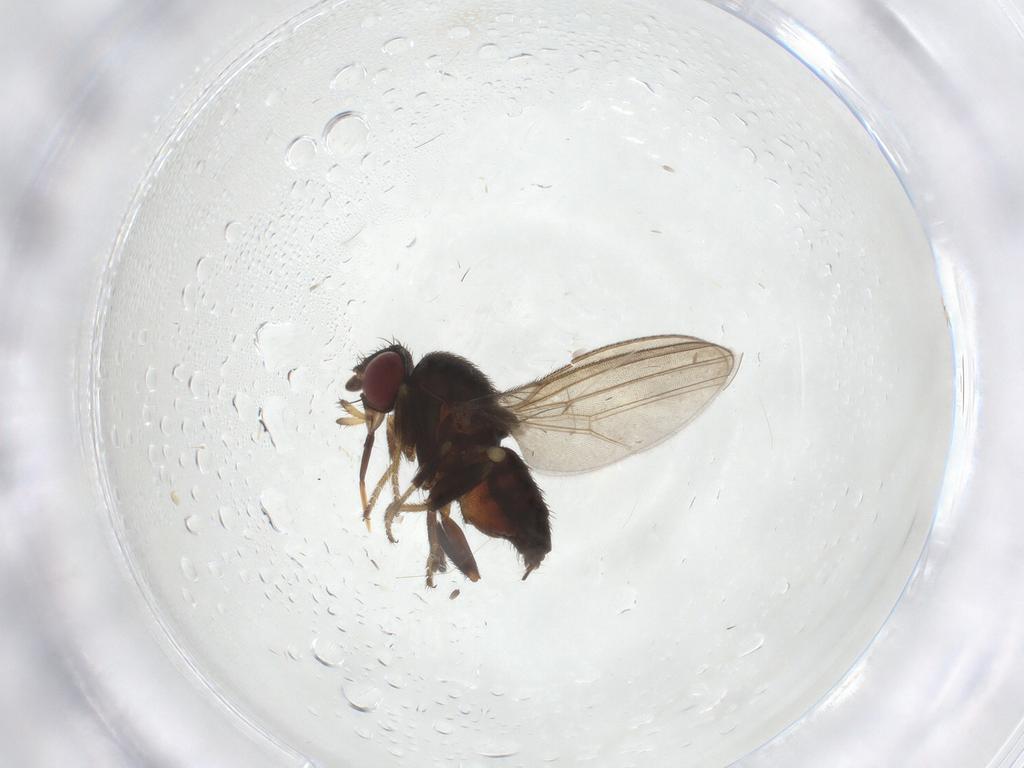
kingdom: Animalia
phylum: Arthropoda
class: Insecta
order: Diptera
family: Milichiidae
